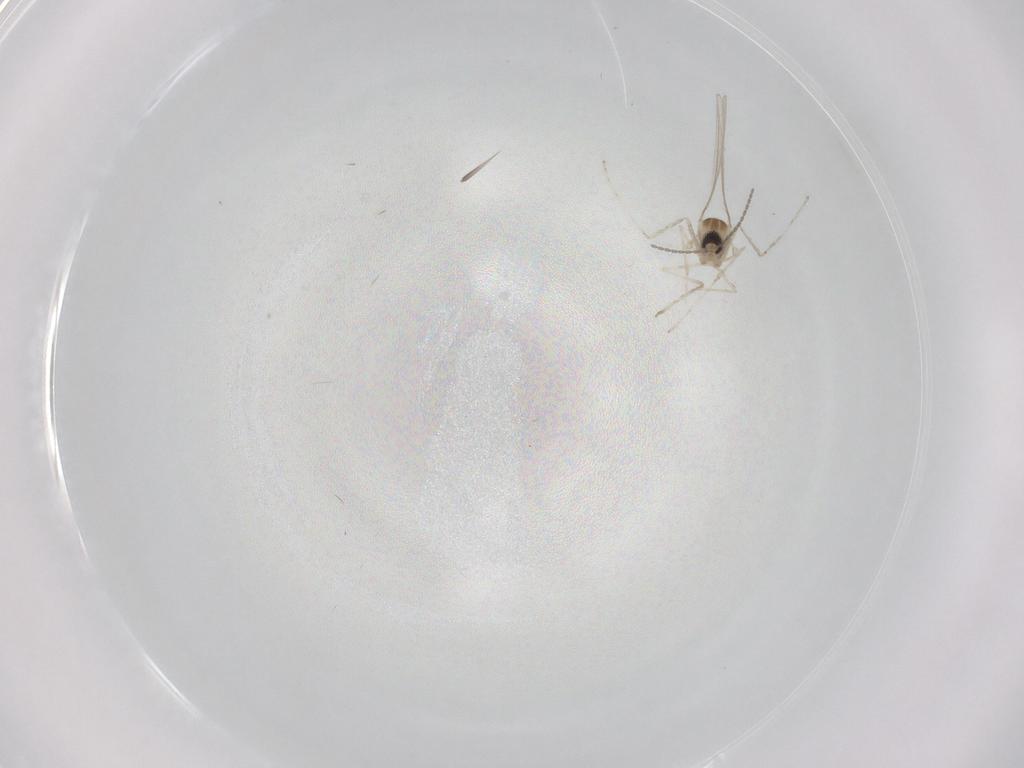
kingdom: Animalia
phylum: Arthropoda
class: Insecta
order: Diptera
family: Cecidomyiidae
